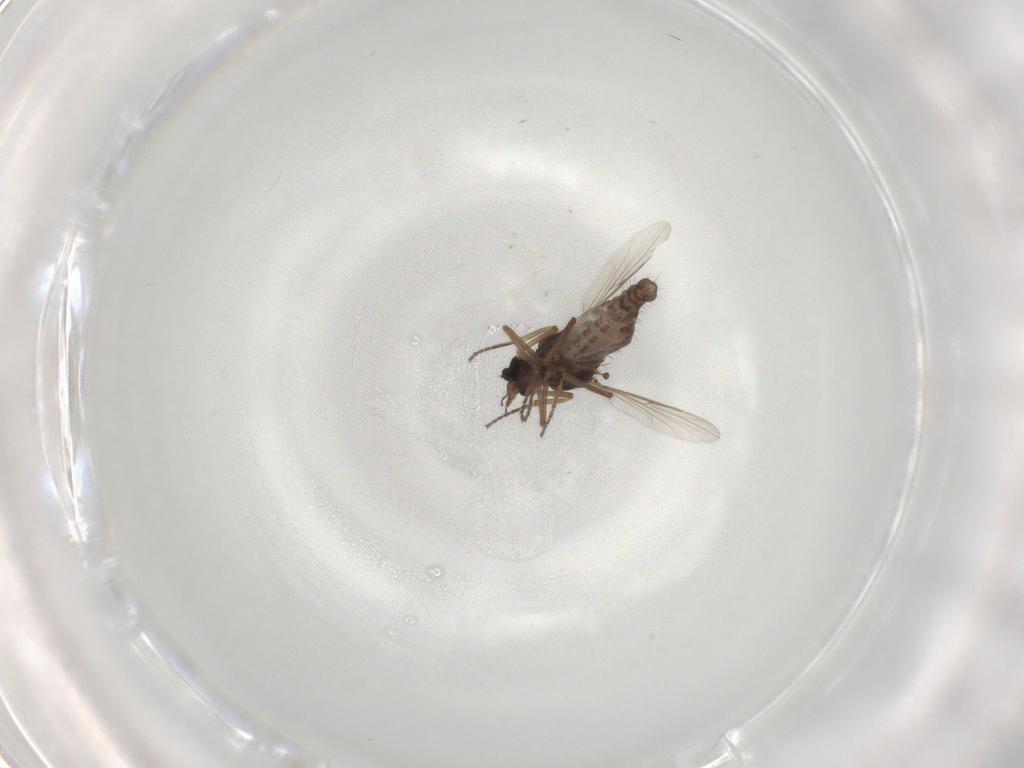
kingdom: Animalia
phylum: Arthropoda
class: Insecta
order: Diptera
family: Ceratopogonidae
